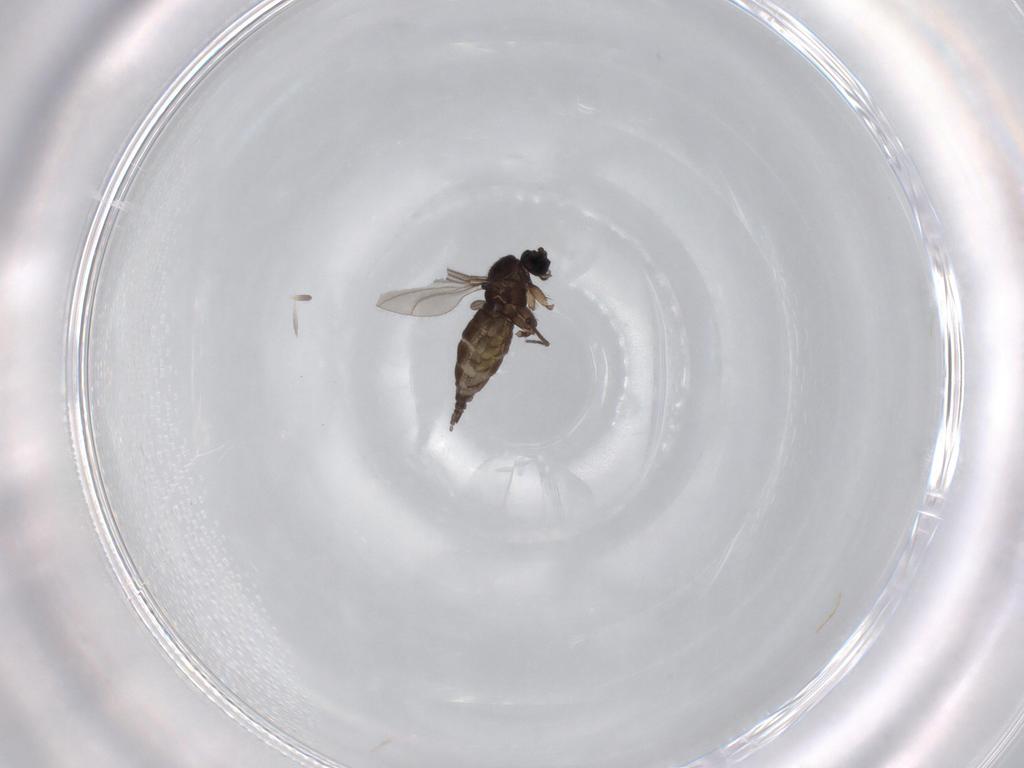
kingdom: Animalia
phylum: Arthropoda
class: Insecta
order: Diptera
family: Sciaridae
